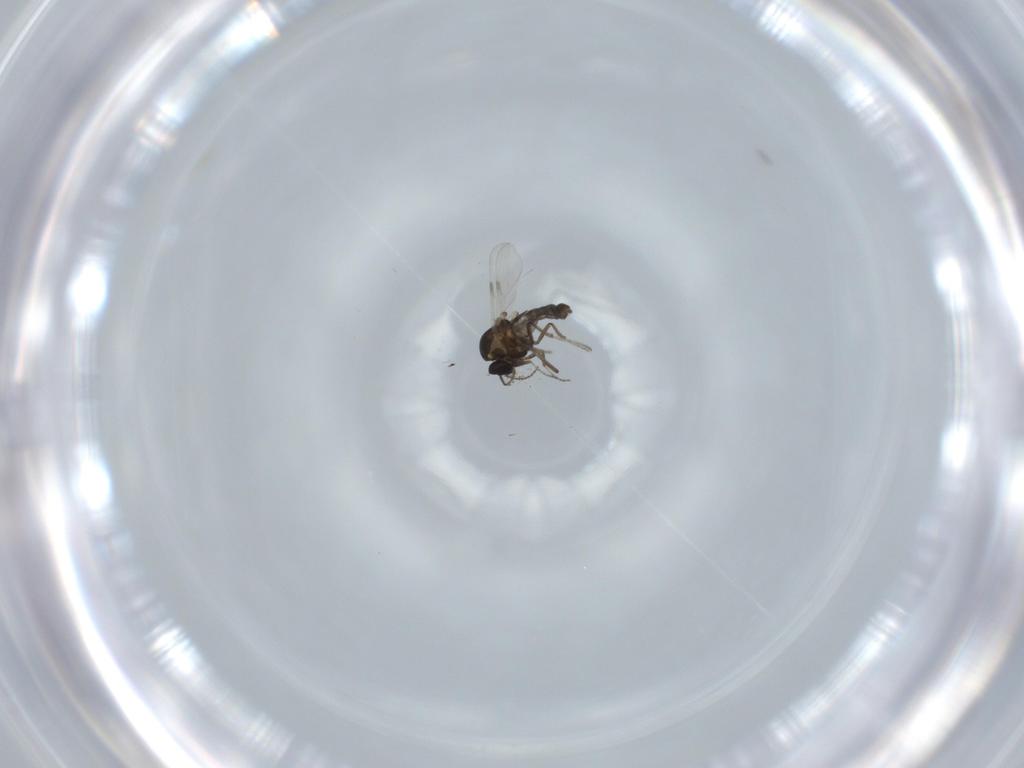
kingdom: Animalia
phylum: Arthropoda
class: Insecta
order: Diptera
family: Ceratopogonidae
